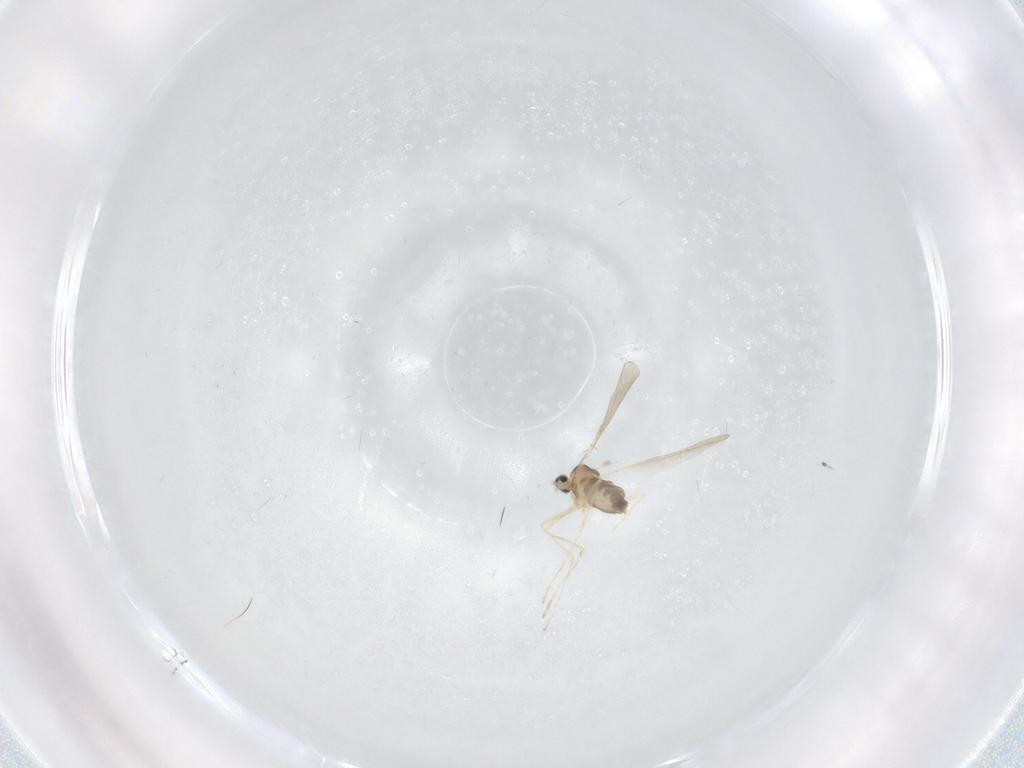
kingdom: Animalia
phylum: Arthropoda
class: Insecta
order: Diptera
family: Cecidomyiidae
